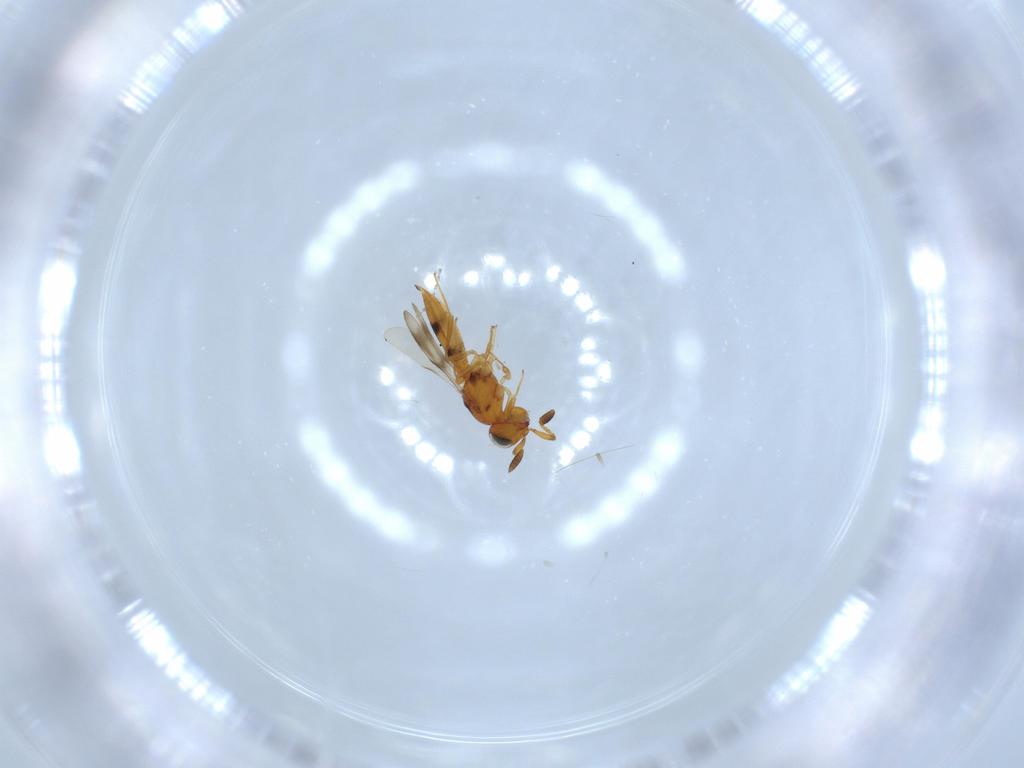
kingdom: Animalia
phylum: Arthropoda
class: Insecta
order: Hymenoptera
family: Scelionidae
